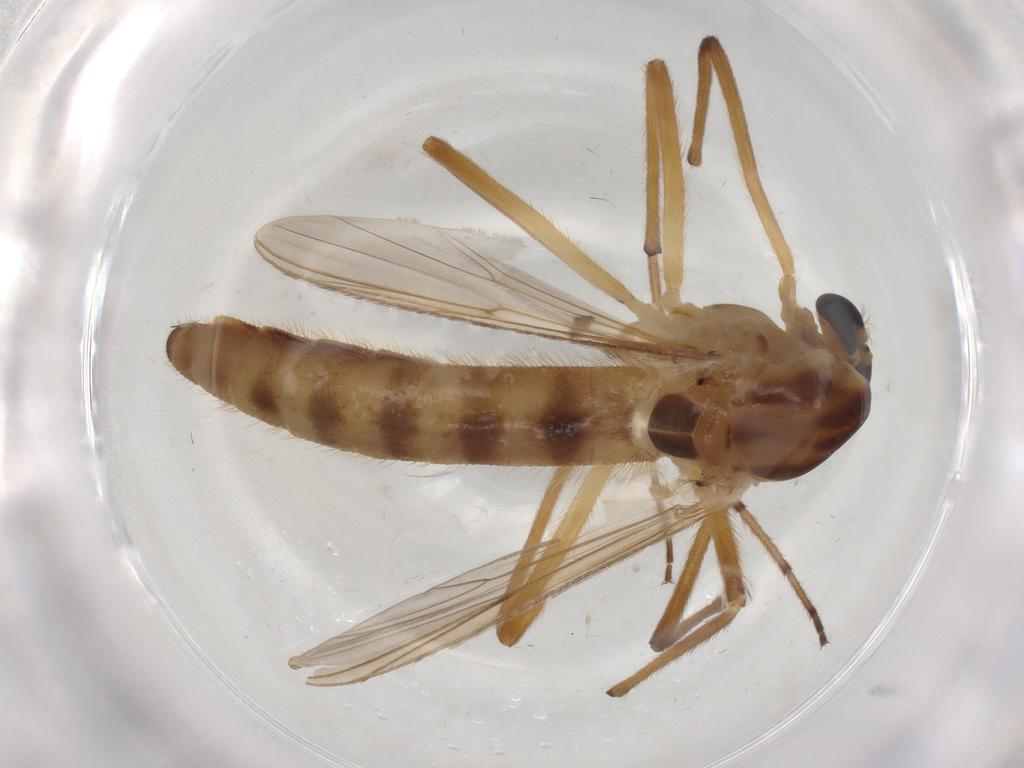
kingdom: Animalia
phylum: Arthropoda
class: Insecta
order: Diptera
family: Chironomidae
